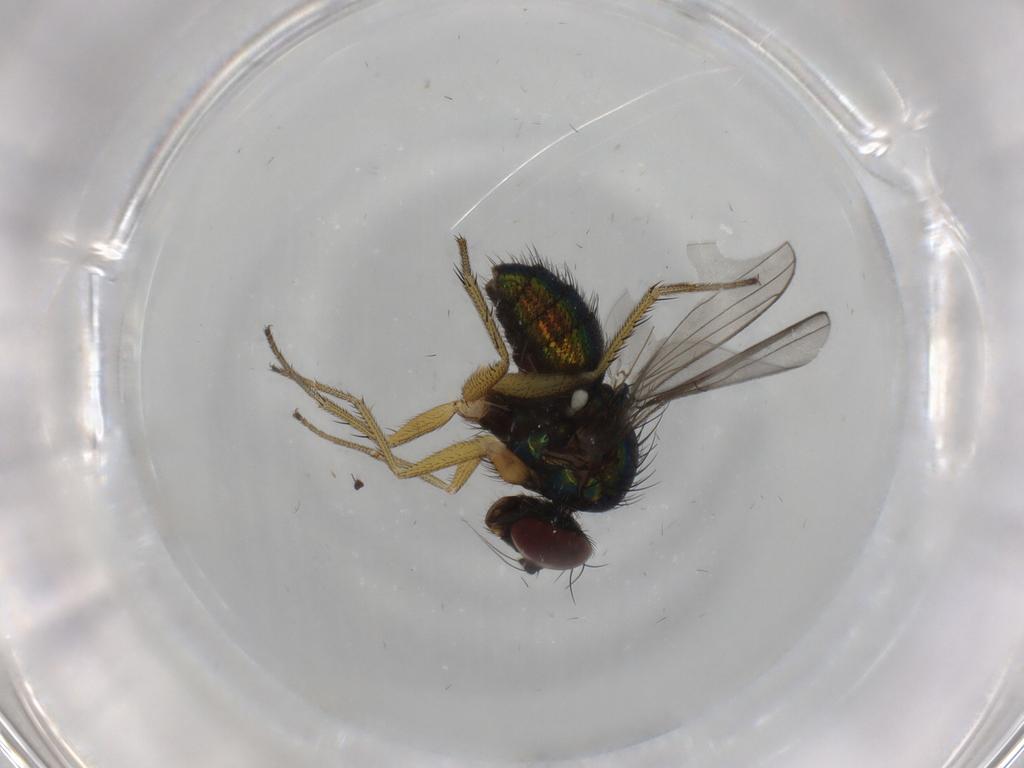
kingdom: Animalia
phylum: Arthropoda
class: Insecta
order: Diptera
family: Dolichopodidae
